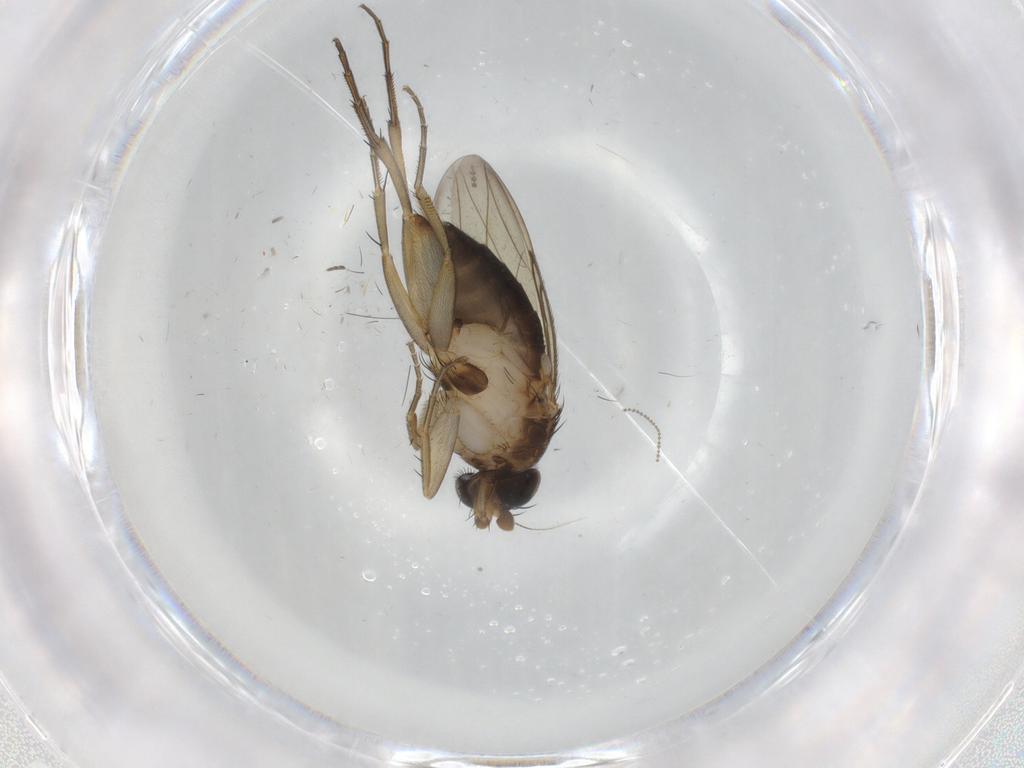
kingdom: Animalia
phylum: Arthropoda
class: Insecta
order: Diptera
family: Phoridae
